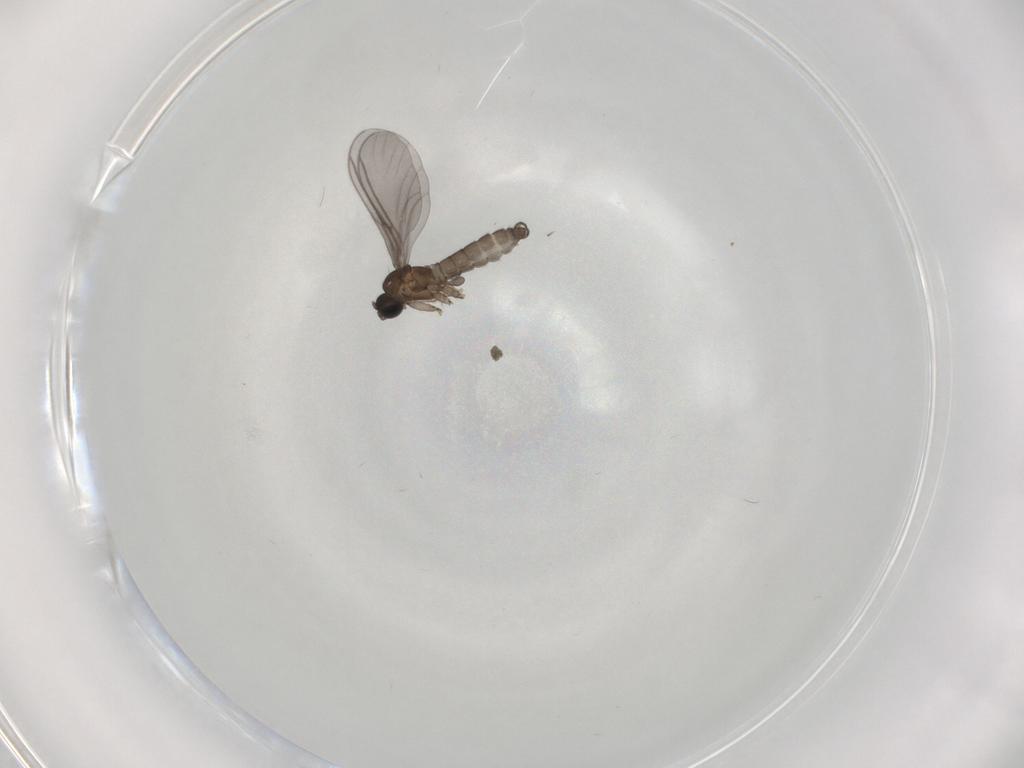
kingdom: Animalia
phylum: Arthropoda
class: Insecta
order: Diptera
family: Sciaridae
